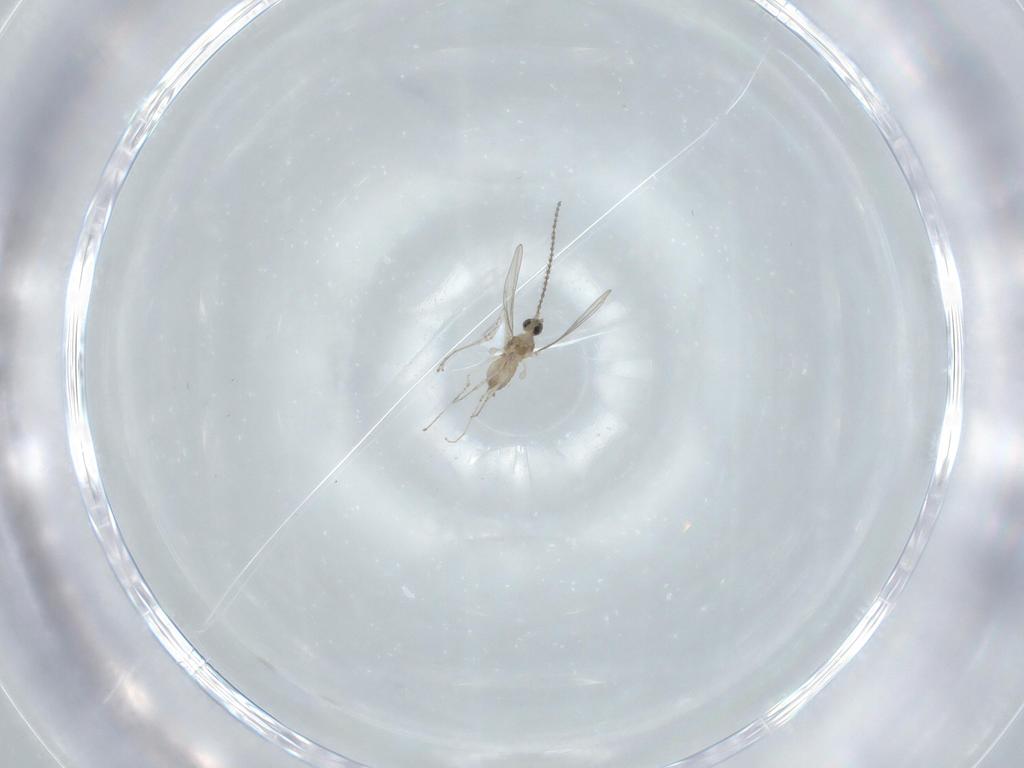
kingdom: Animalia
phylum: Arthropoda
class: Insecta
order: Diptera
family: Cecidomyiidae
